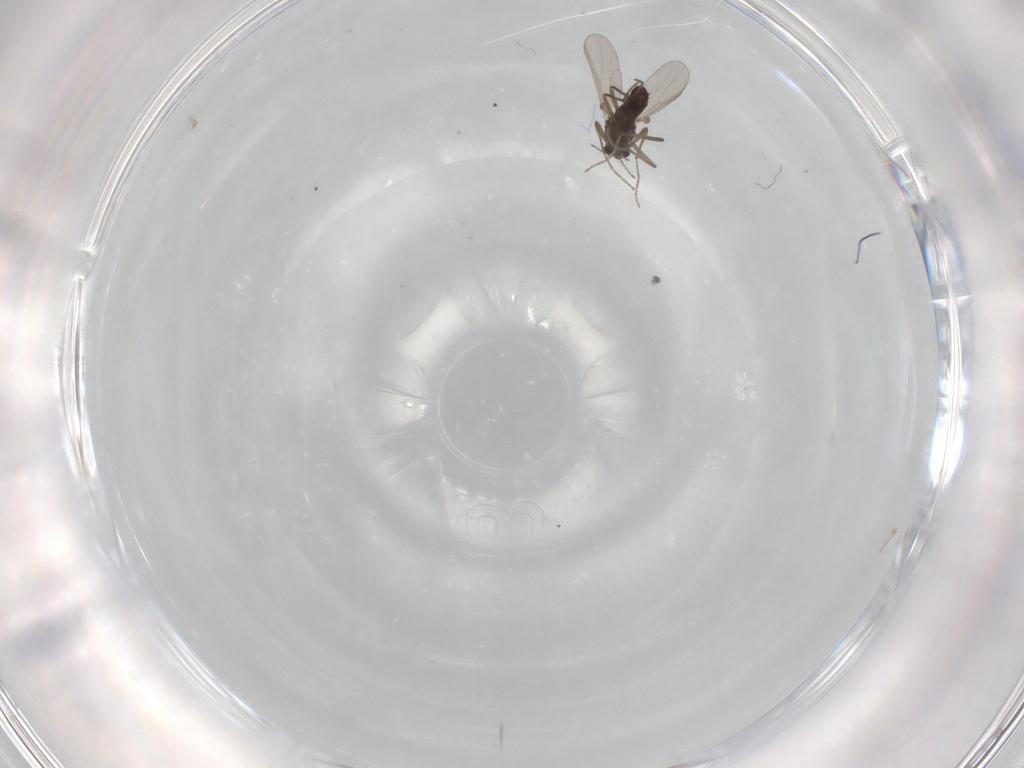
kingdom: Animalia
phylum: Arthropoda
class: Insecta
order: Diptera
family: Chironomidae
